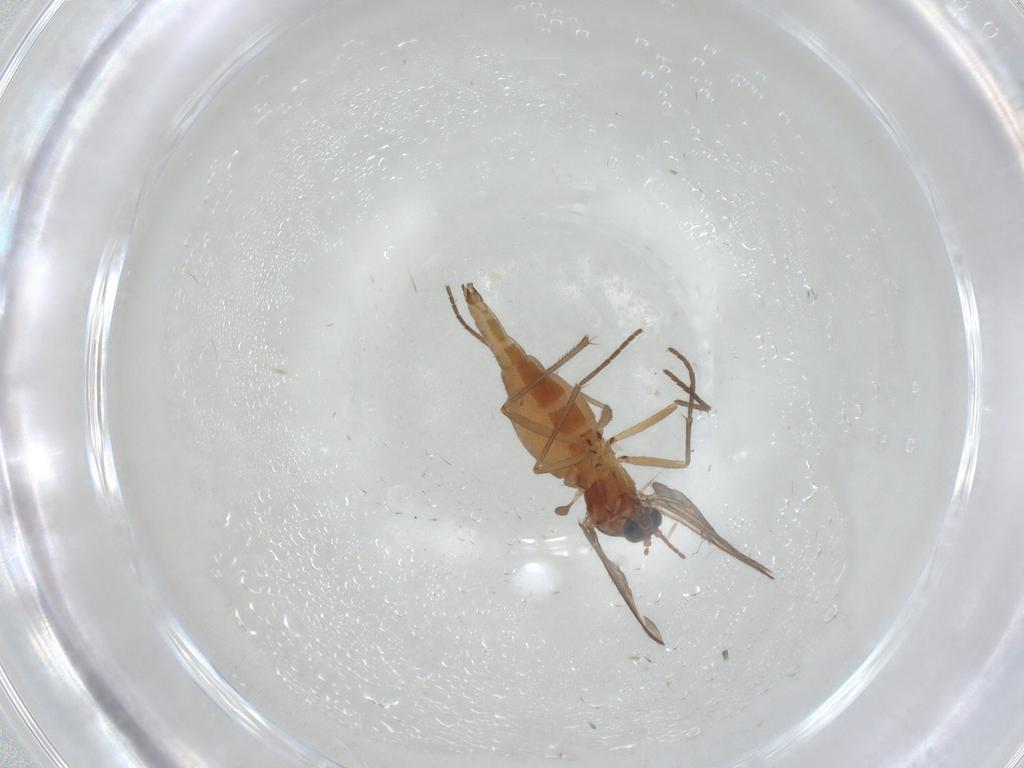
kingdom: Animalia
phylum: Arthropoda
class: Insecta
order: Diptera
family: Sciaridae
